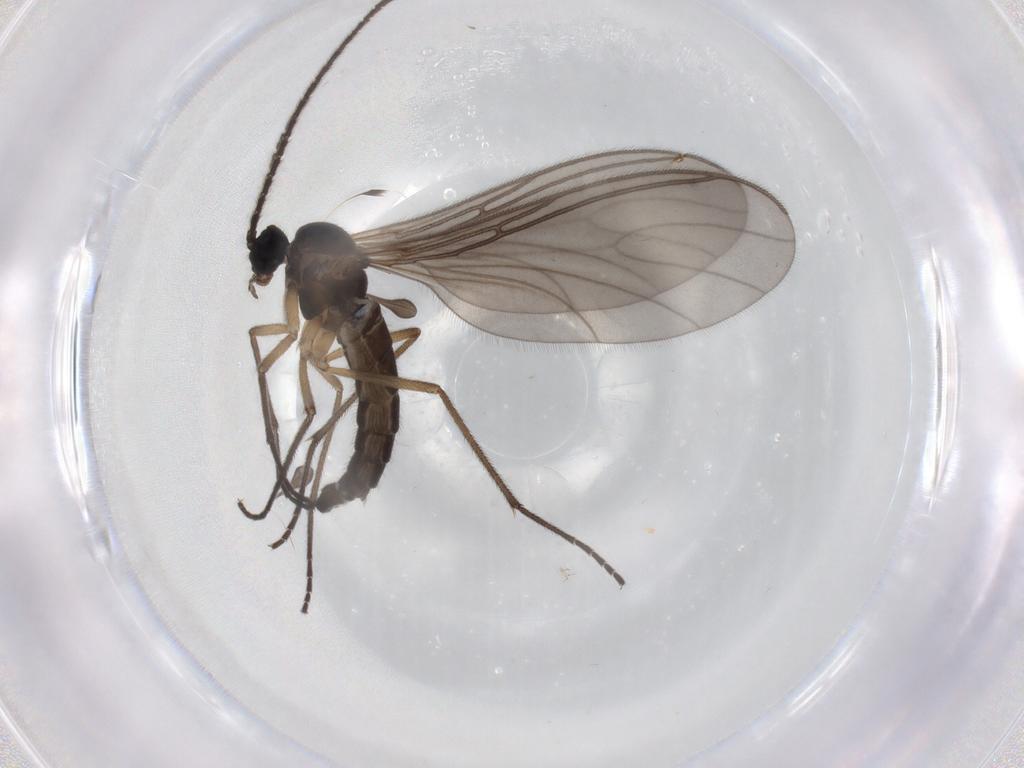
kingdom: Animalia
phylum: Arthropoda
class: Insecta
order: Diptera
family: Sciaridae
